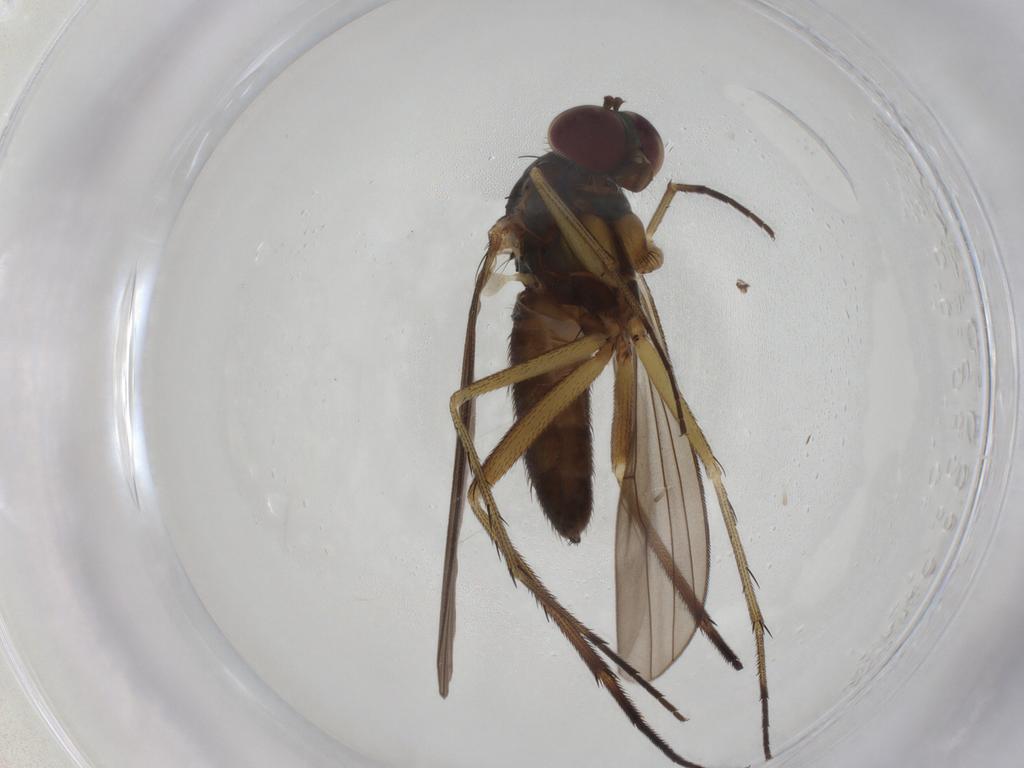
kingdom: Animalia
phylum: Arthropoda
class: Insecta
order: Diptera
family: Dolichopodidae
